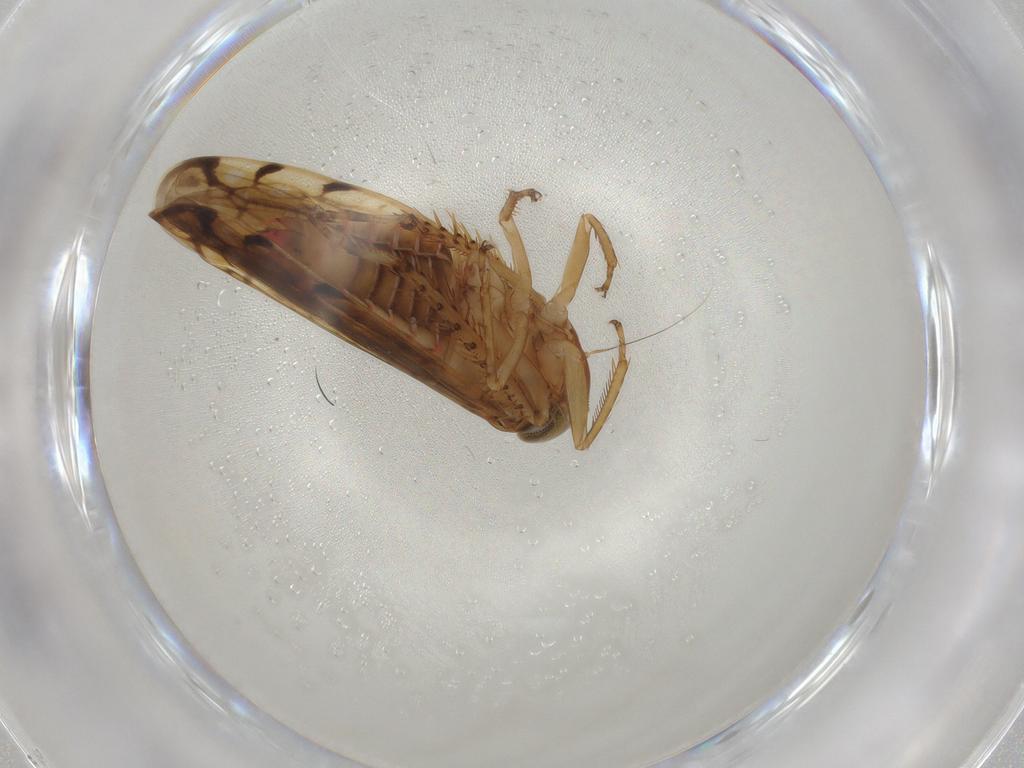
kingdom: Animalia
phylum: Arthropoda
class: Insecta
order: Hemiptera
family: Cicadellidae
